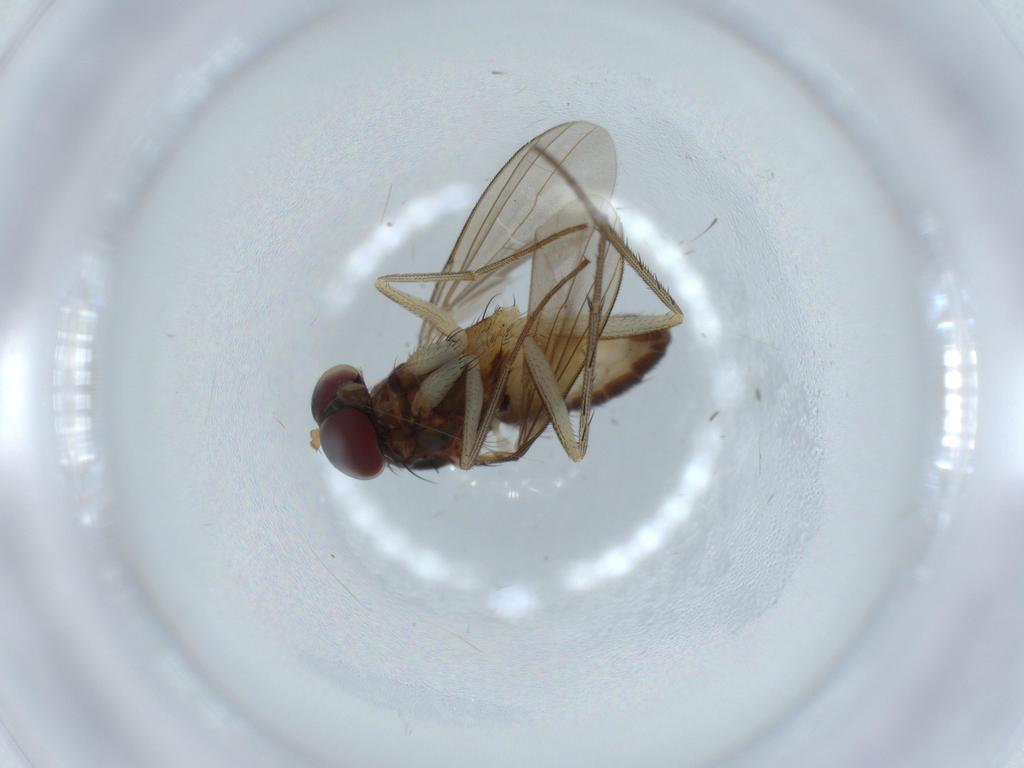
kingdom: Animalia
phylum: Arthropoda
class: Insecta
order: Diptera
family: Dolichopodidae
